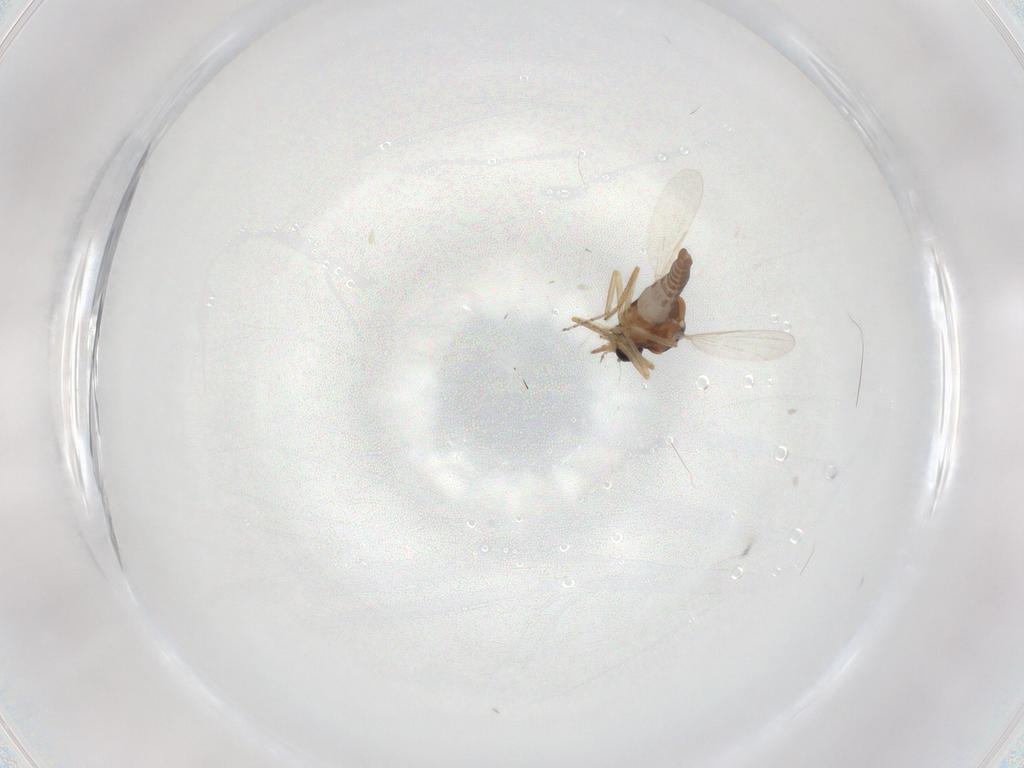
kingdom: Animalia
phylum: Arthropoda
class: Insecta
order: Diptera
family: Ceratopogonidae
